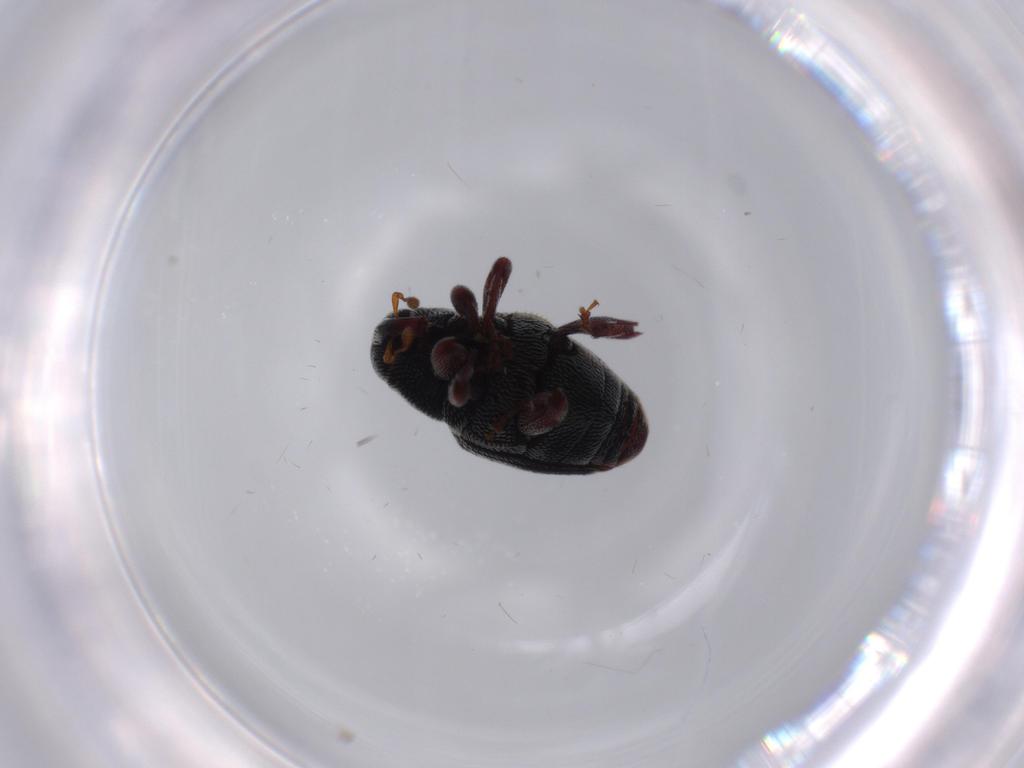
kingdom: Animalia
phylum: Arthropoda
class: Insecta
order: Coleoptera
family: Curculionidae
